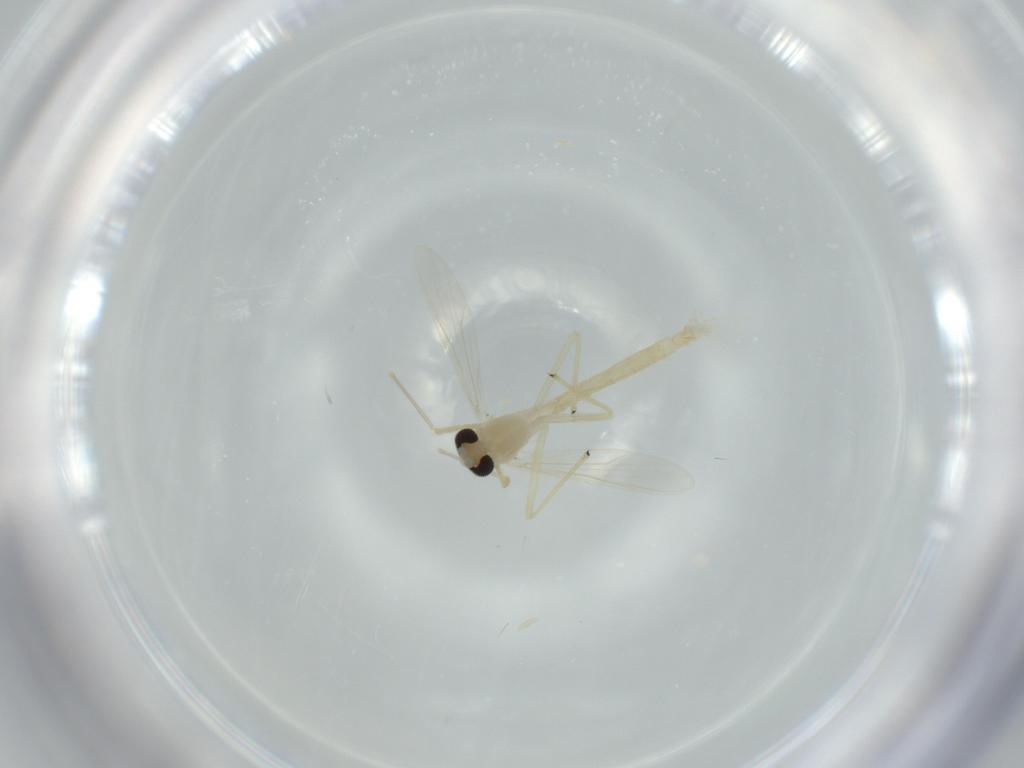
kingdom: Animalia
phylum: Arthropoda
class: Insecta
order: Diptera
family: Chironomidae
